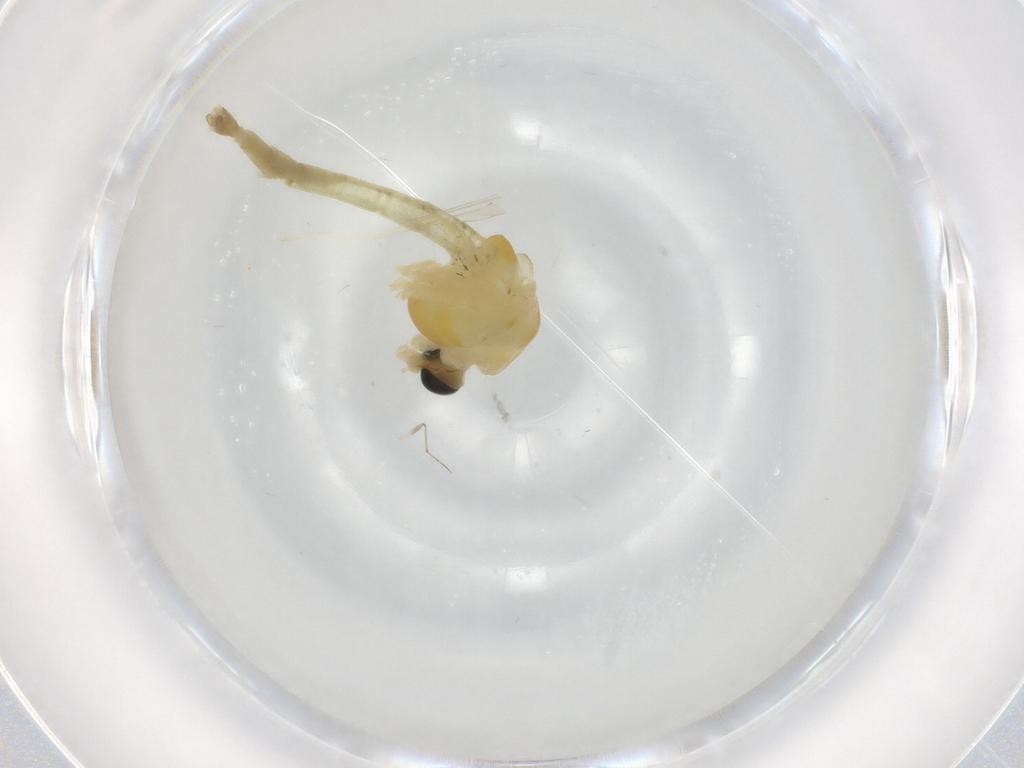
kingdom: Animalia
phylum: Arthropoda
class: Insecta
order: Diptera
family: Chironomidae
